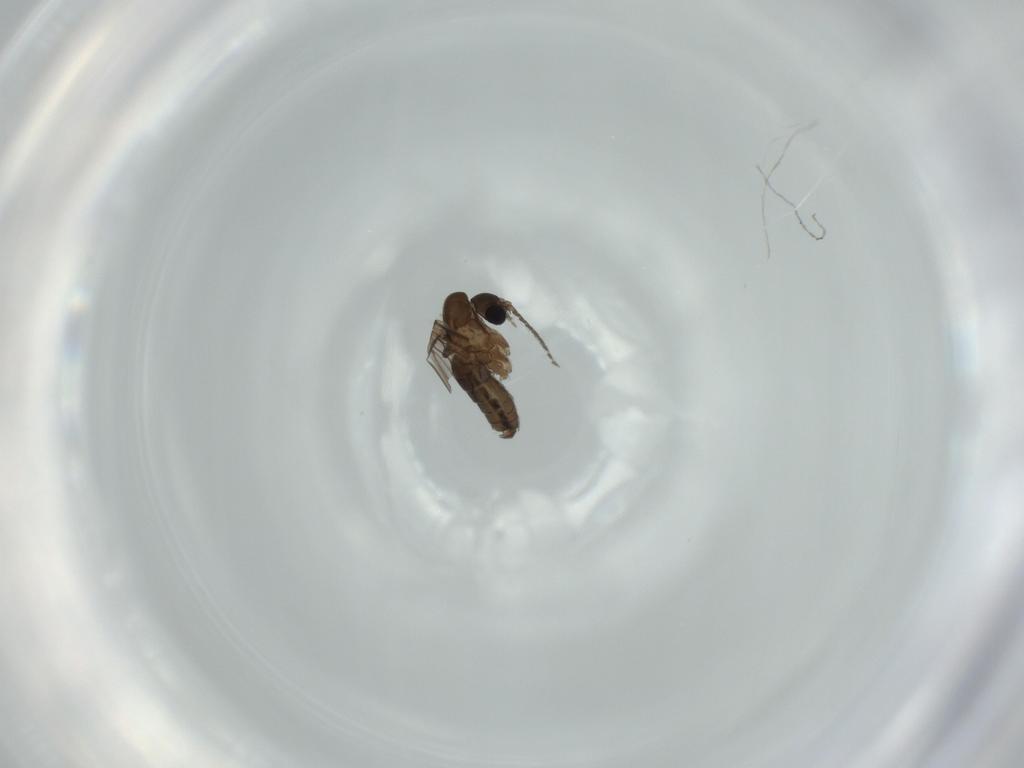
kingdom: Animalia
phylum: Arthropoda
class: Insecta
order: Diptera
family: Psychodidae
